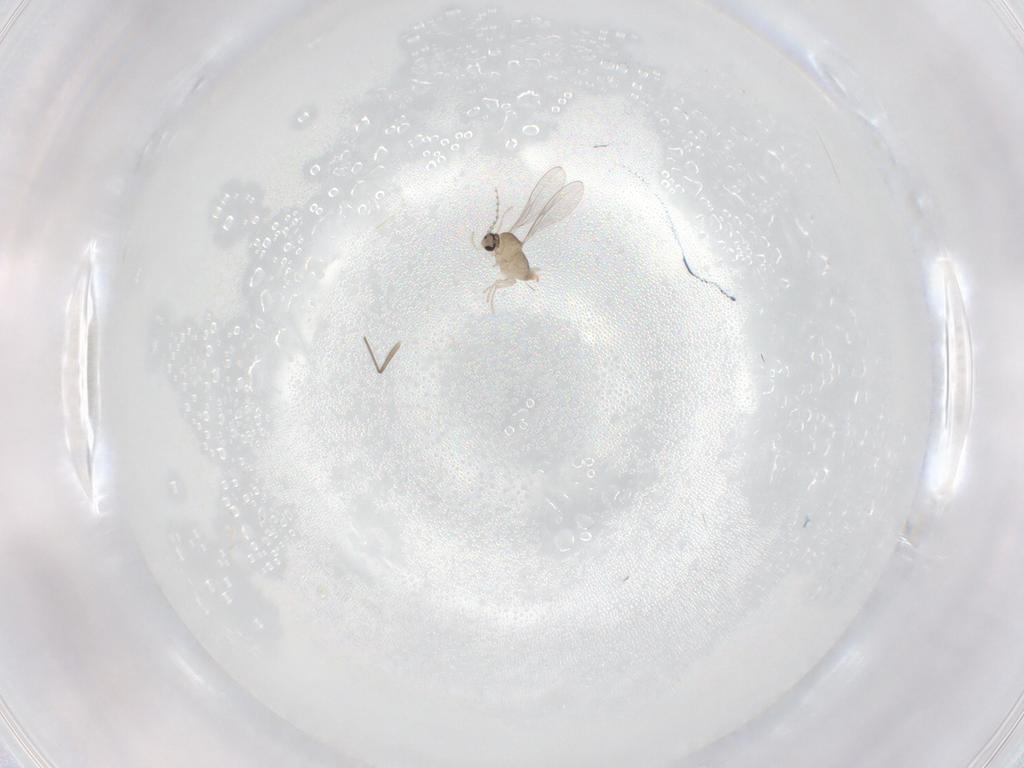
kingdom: Animalia
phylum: Arthropoda
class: Insecta
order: Diptera
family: Cecidomyiidae
